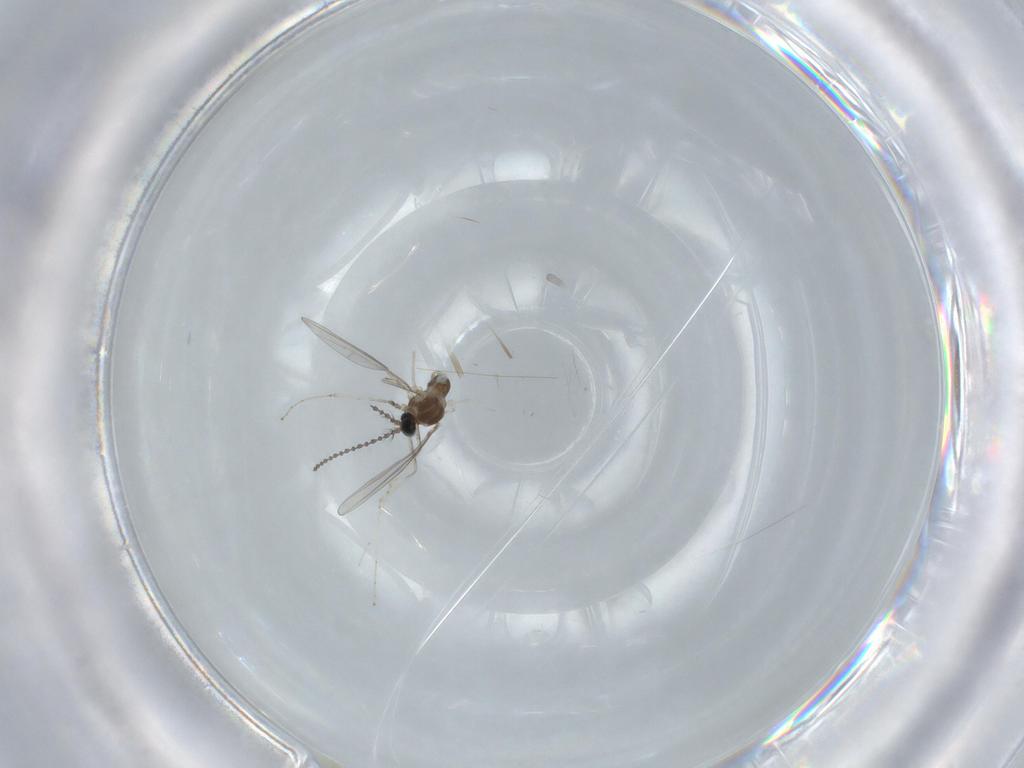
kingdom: Animalia
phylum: Arthropoda
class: Insecta
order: Diptera
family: Cecidomyiidae
